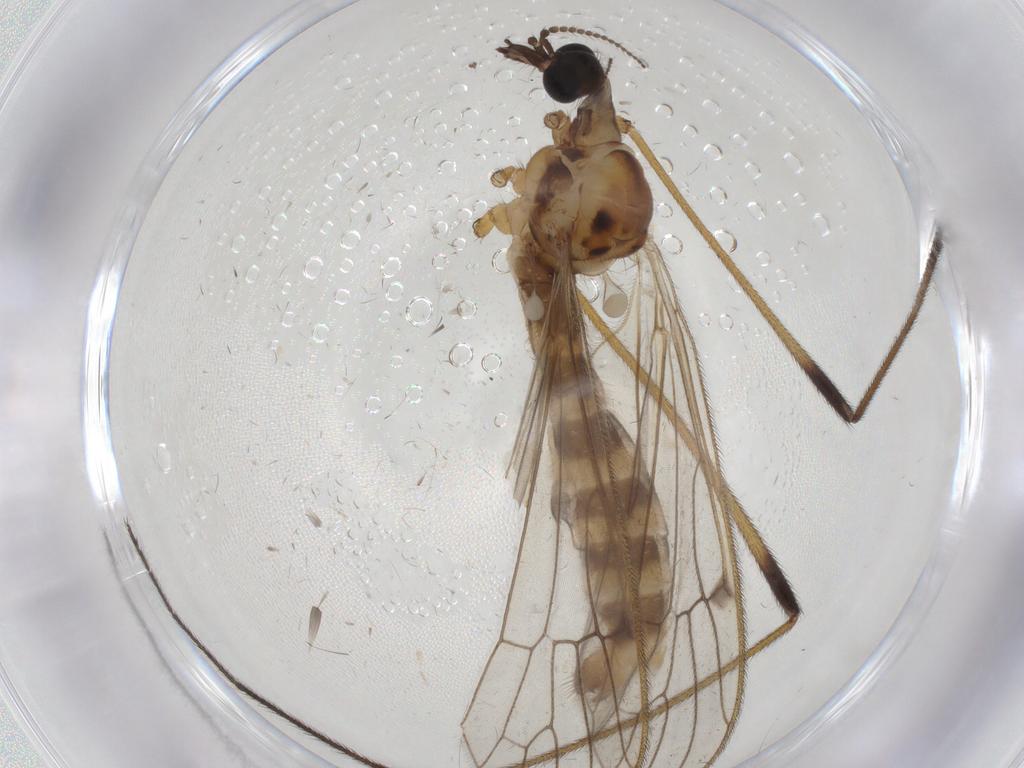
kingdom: Animalia
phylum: Arthropoda
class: Insecta
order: Diptera
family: Limoniidae
